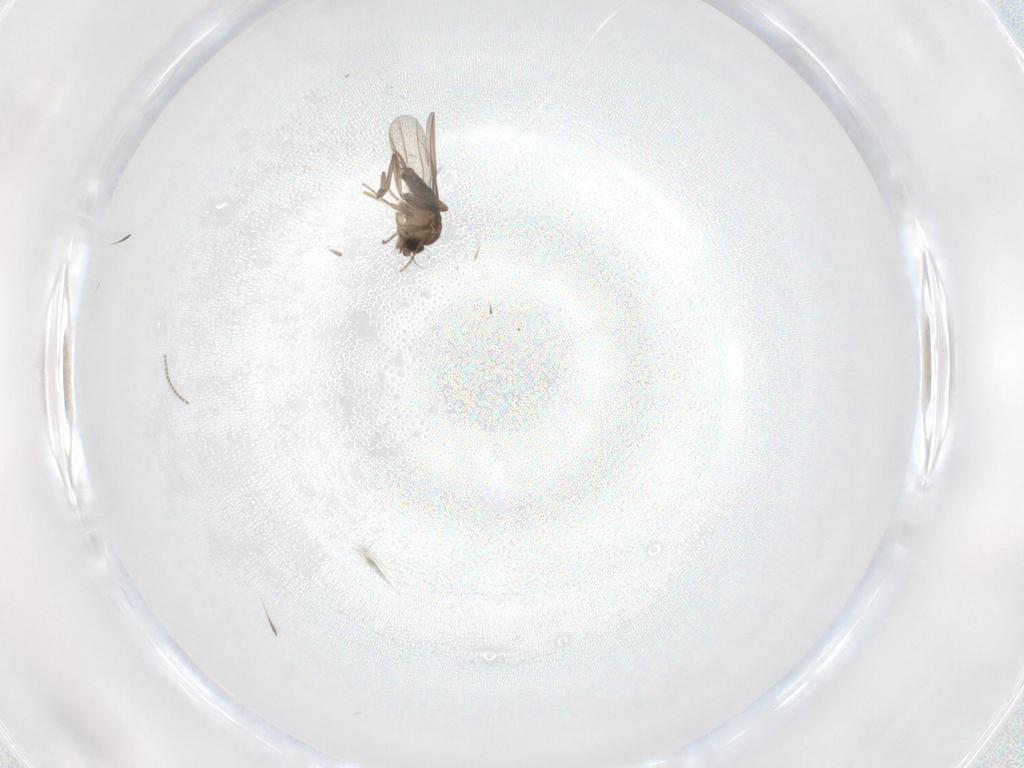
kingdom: Animalia
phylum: Arthropoda
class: Insecta
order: Diptera
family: Phoridae
